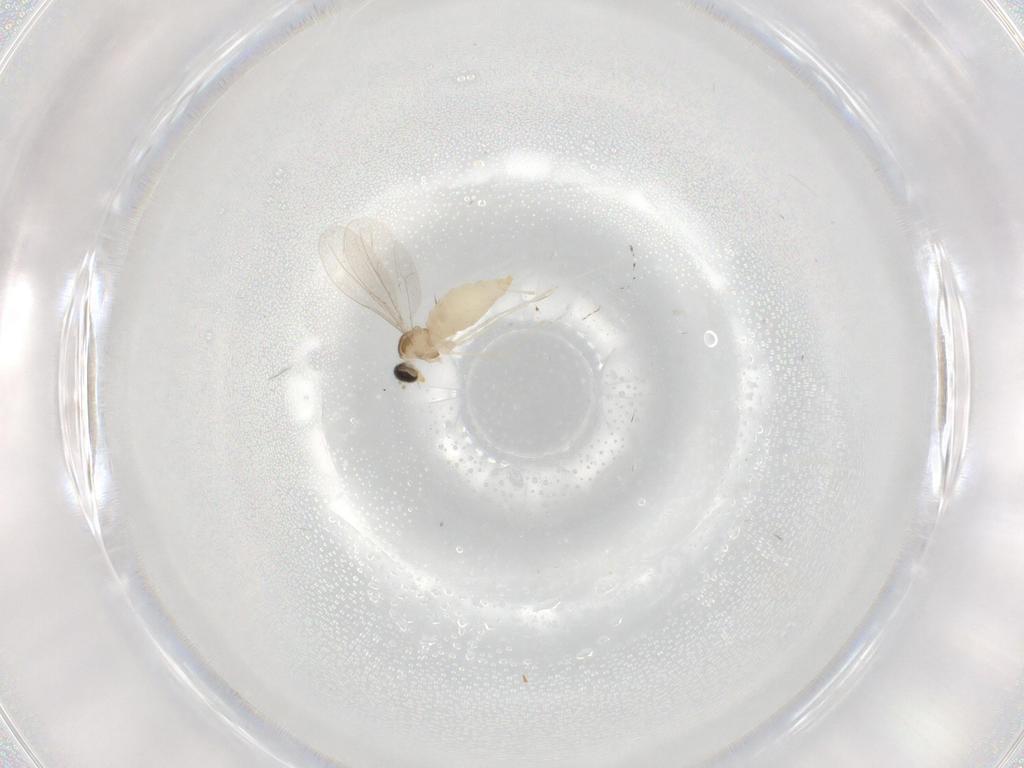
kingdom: Animalia
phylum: Arthropoda
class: Insecta
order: Diptera
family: Cecidomyiidae
